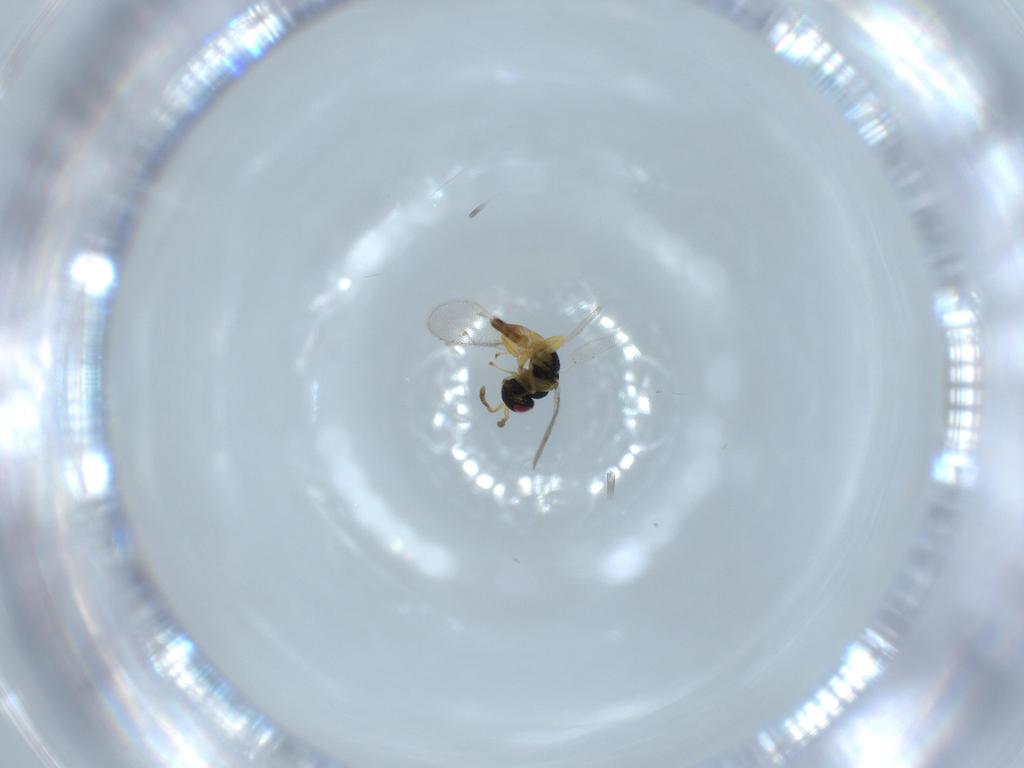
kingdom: Animalia
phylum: Arthropoda
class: Insecta
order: Hymenoptera
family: Pteromalidae
